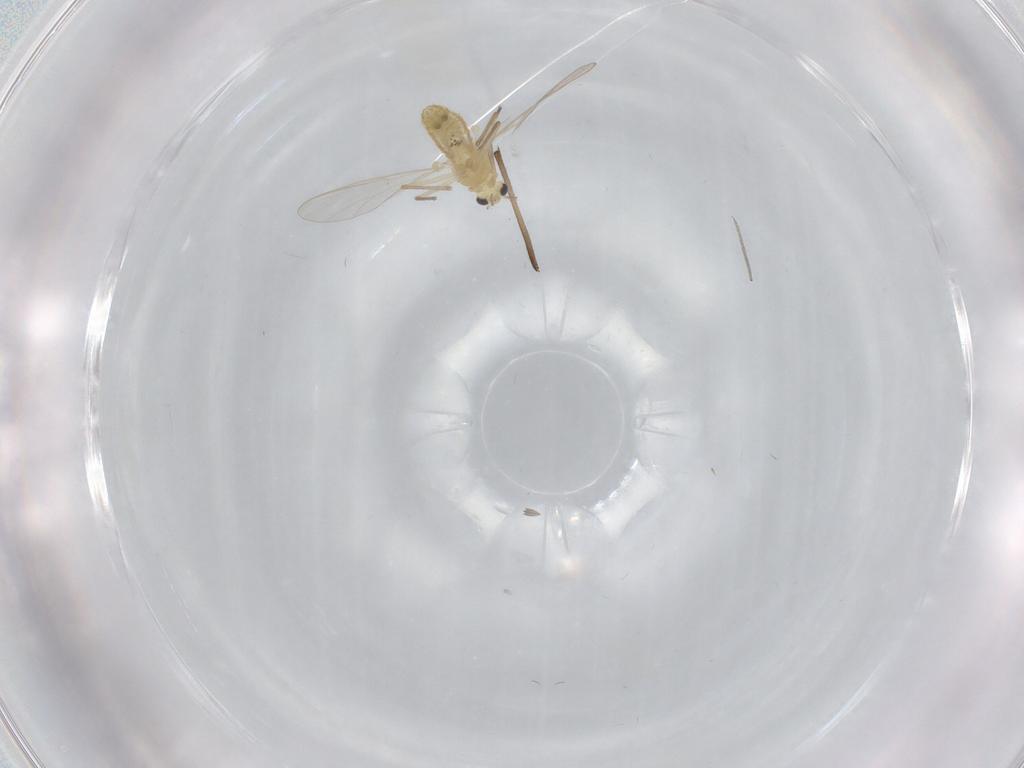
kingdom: Animalia
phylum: Arthropoda
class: Insecta
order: Diptera
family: Chironomidae
